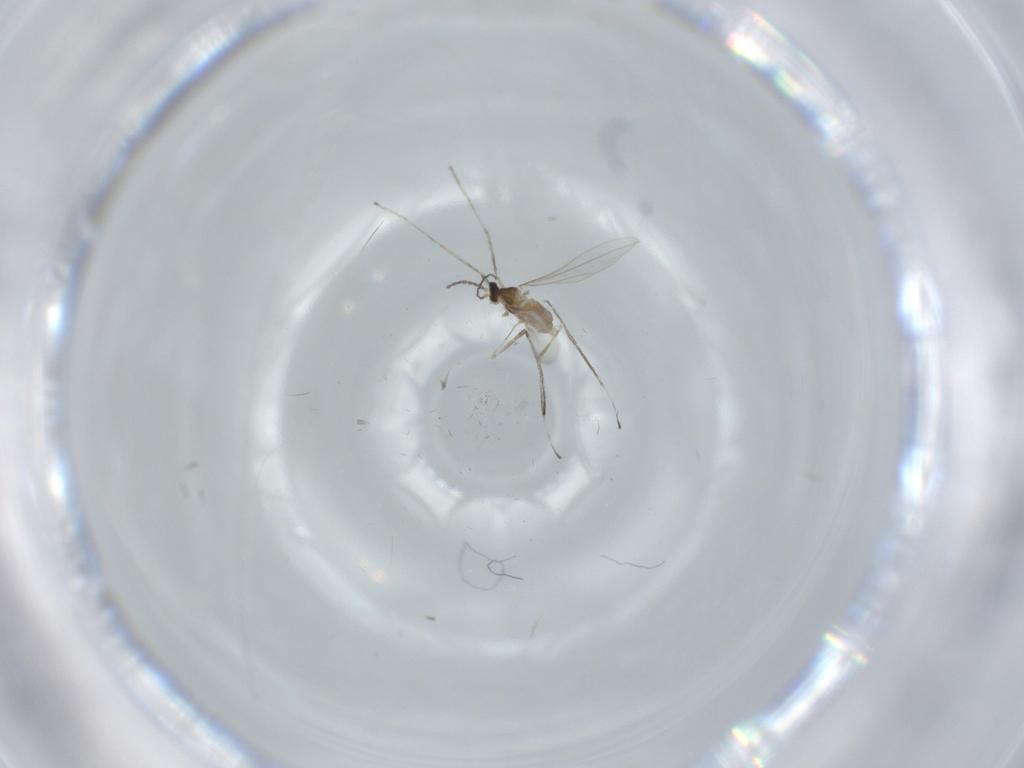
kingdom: Animalia
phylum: Arthropoda
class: Insecta
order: Diptera
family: Cecidomyiidae
